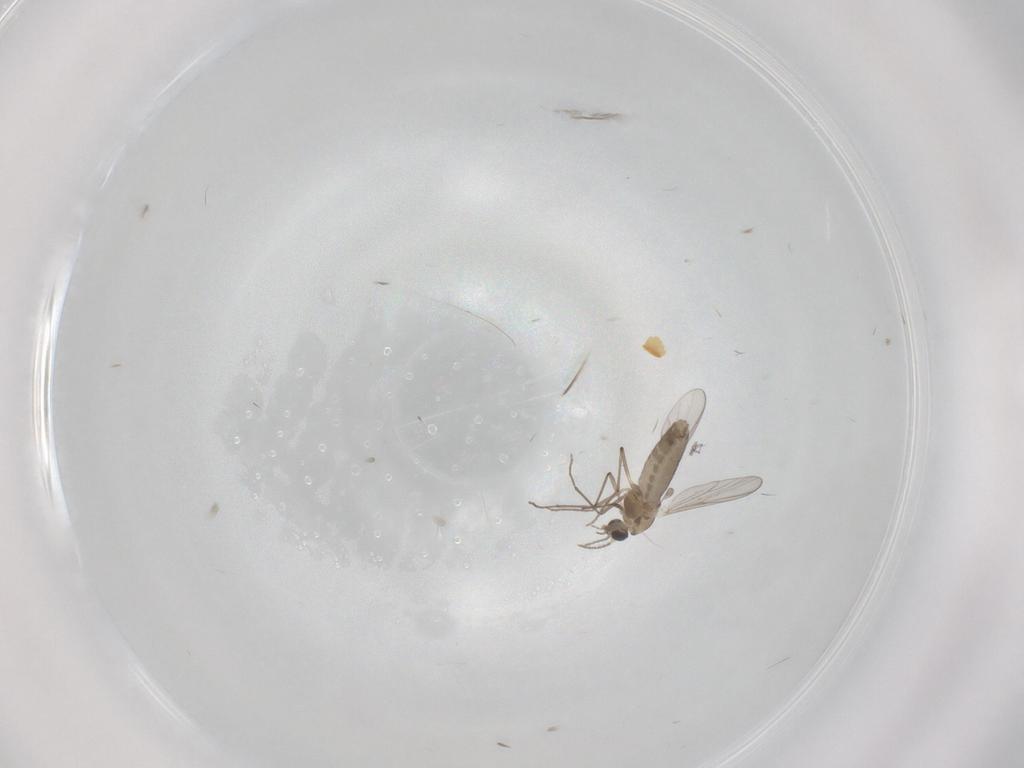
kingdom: Animalia
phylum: Arthropoda
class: Insecta
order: Diptera
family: Chironomidae
